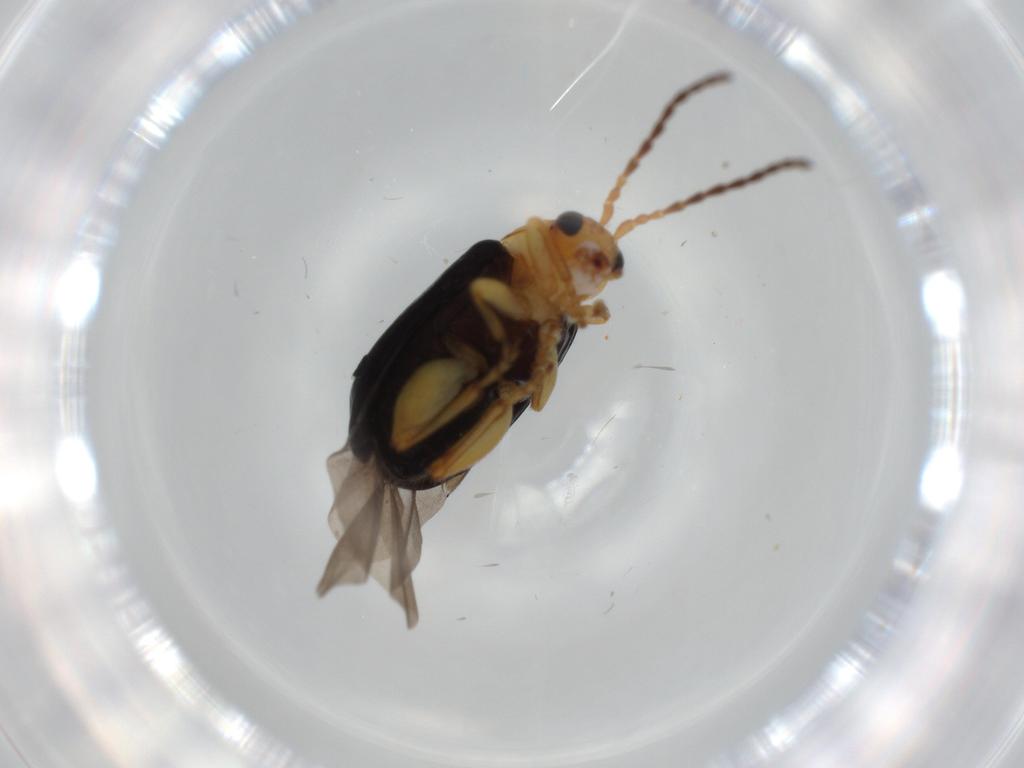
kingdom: Animalia
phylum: Arthropoda
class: Insecta
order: Coleoptera
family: Chrysomelidae
